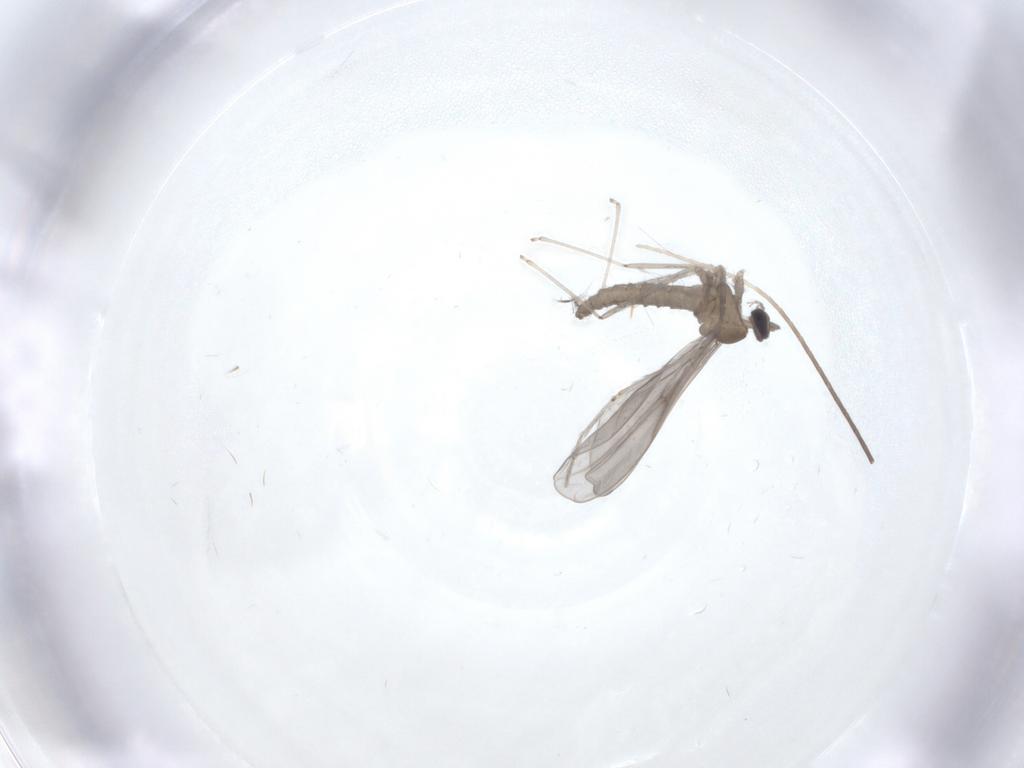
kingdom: Animalia
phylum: Arthropoda
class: Insecta
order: Diptera
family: Cecidomyiidae
